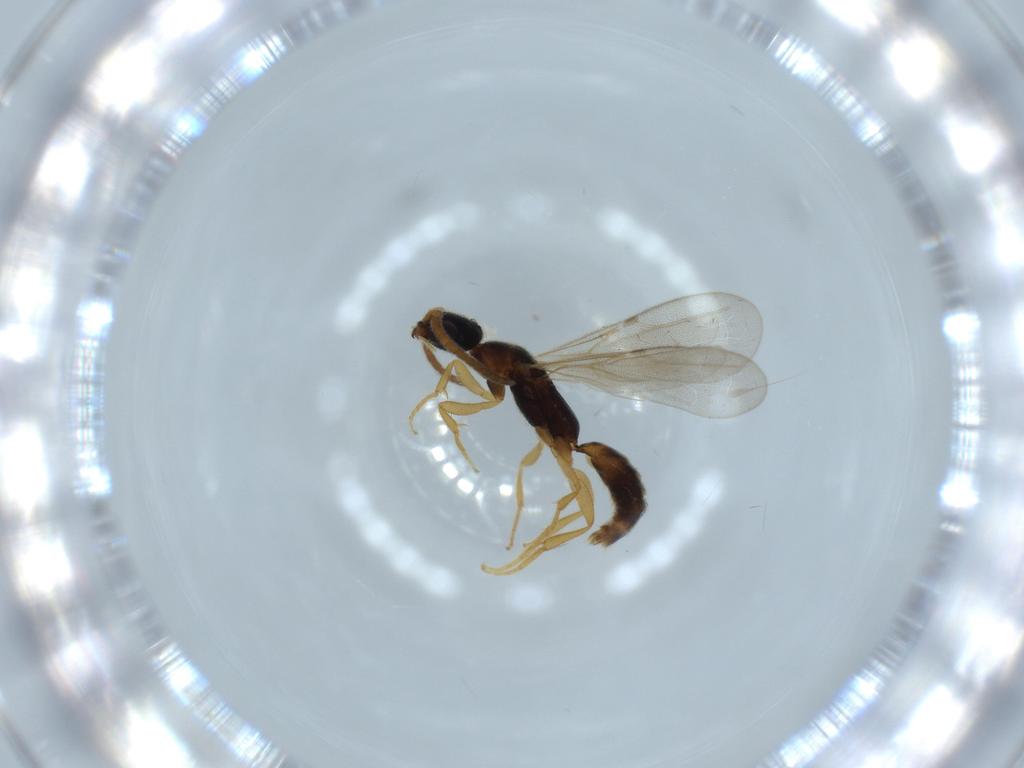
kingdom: Animalia
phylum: Arthropoda
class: Insecta
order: Hymenoptera
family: Bethylidae
